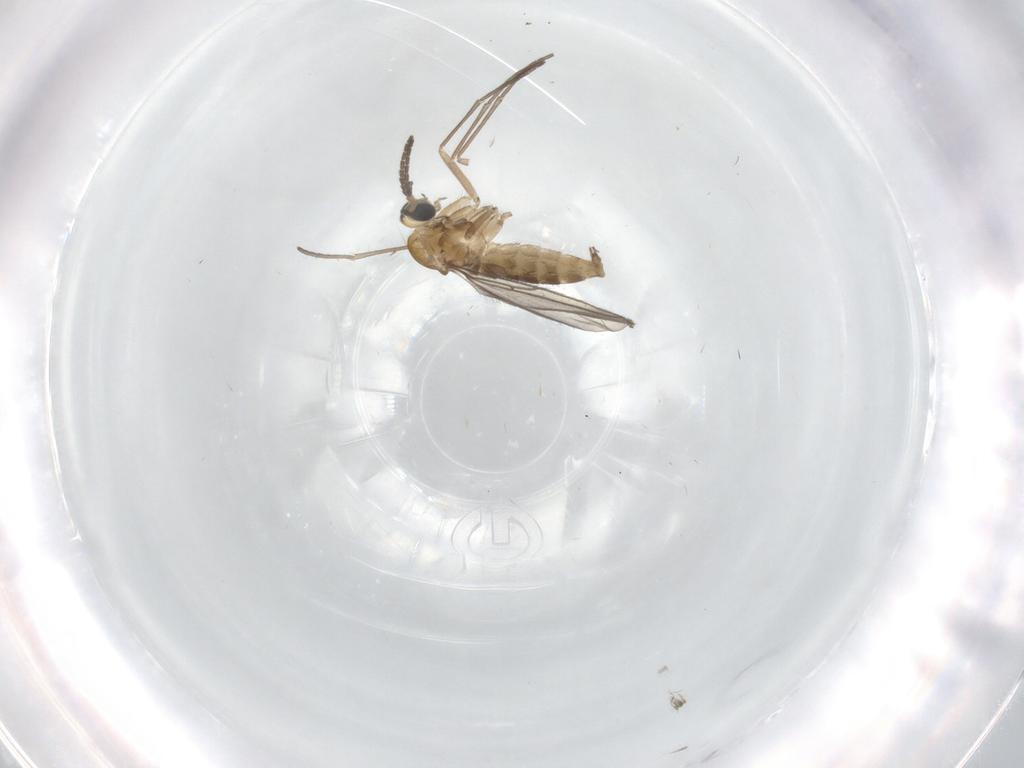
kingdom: Animalia
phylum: Arthropoda
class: Insecta
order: Diptera
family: Sciaridae
